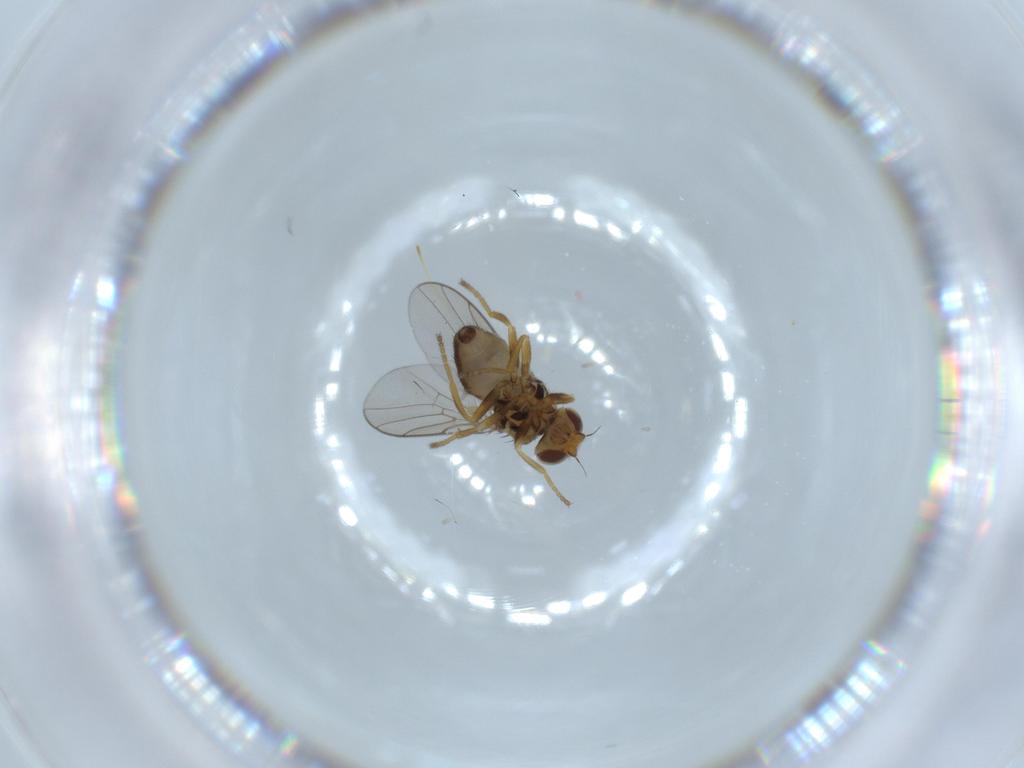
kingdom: Animalia
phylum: Arthropoda
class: Insecta
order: Diptera
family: Chloropidae
